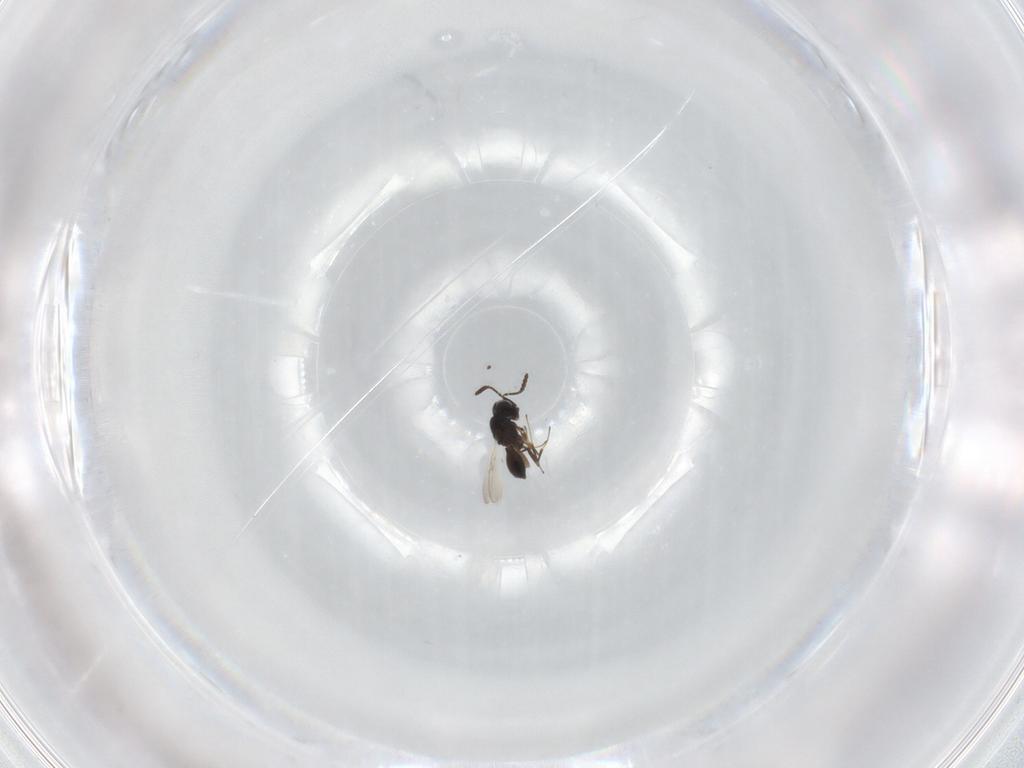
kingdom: Animalia
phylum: Arthropoda
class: Insecta
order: Hymenoptera
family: Scelionidae
